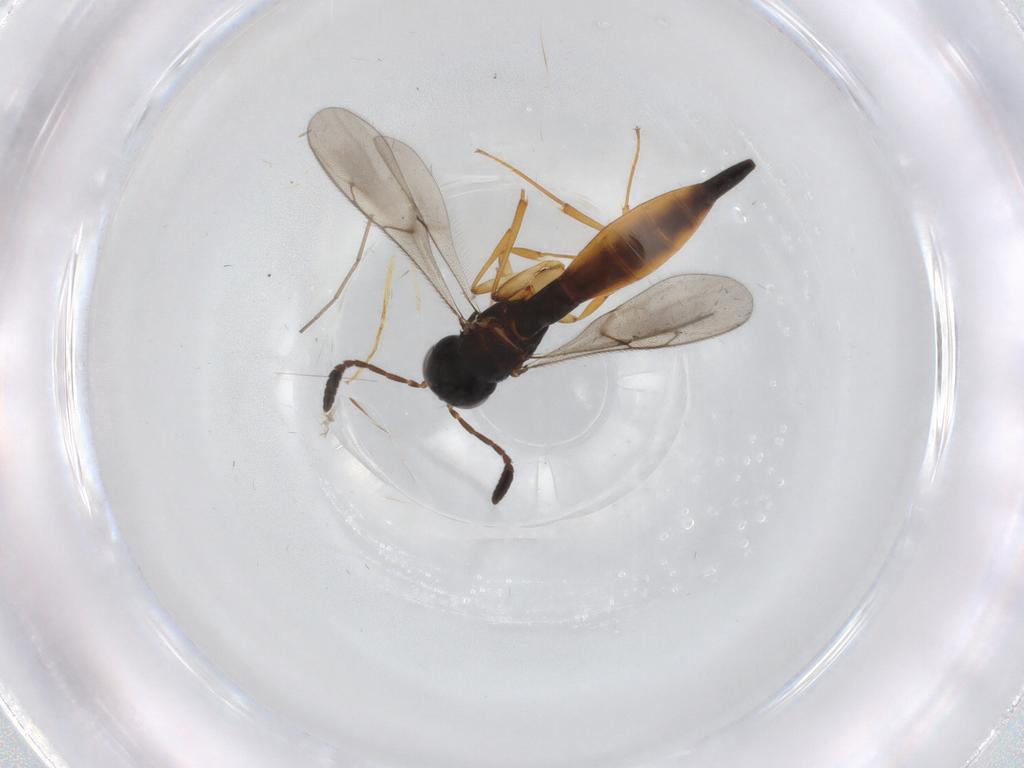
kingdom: Animalia
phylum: Arthropoda
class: Insecta
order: Hymenoptera
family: Scelionidae
